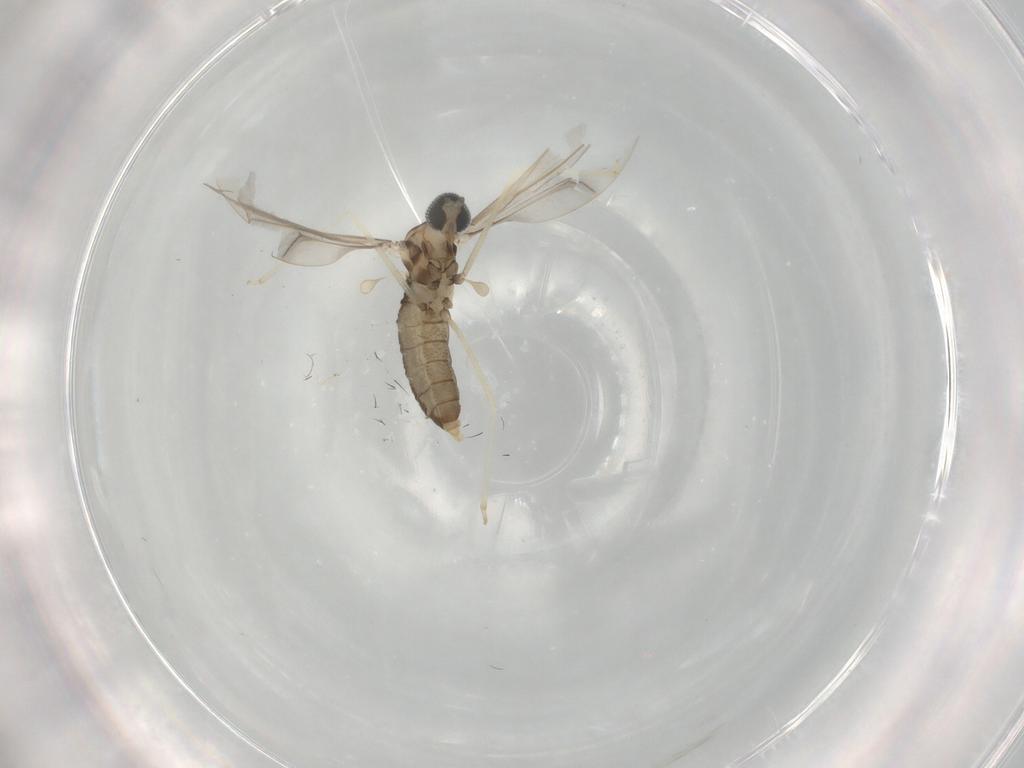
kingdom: Animalia
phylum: Arthropoda
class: Insecta
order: Diptera
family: Cecidomyiidae
